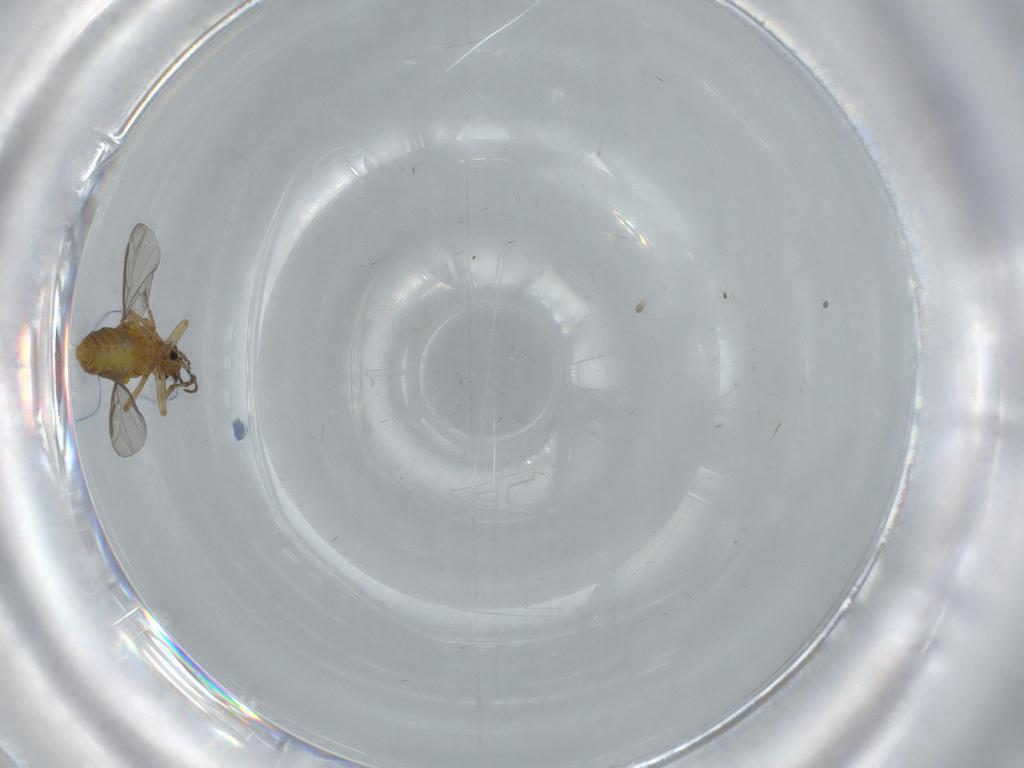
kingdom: Animalia
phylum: Arthropoda
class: Insecta
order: Diptera
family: Ceratopogonidae
